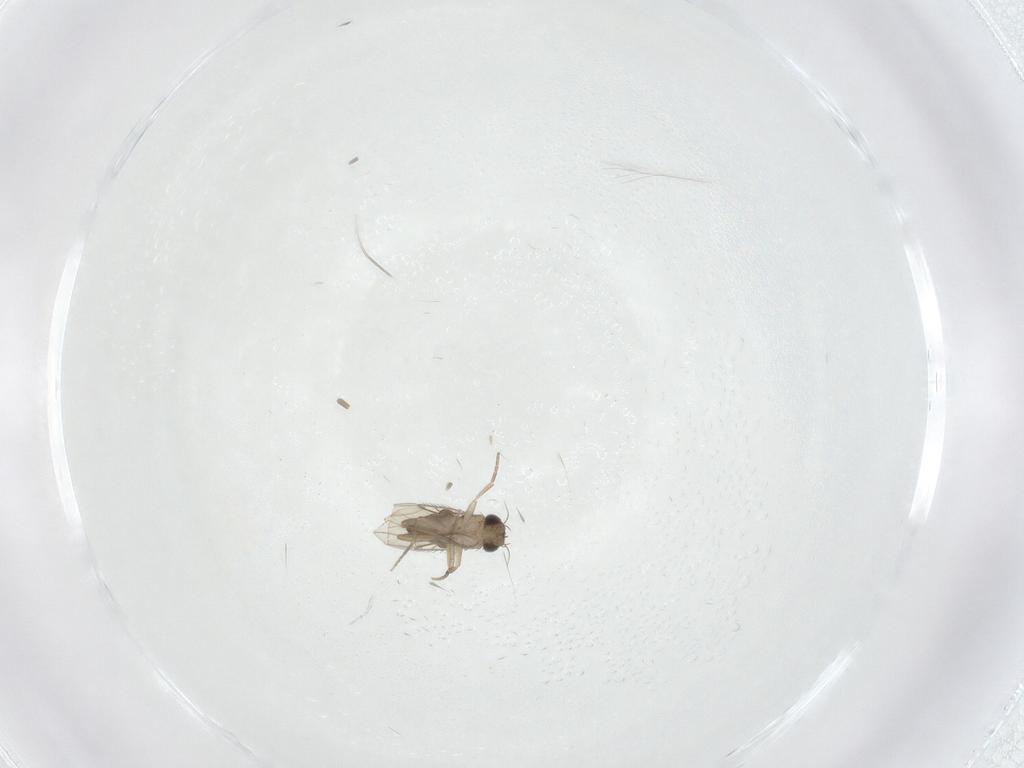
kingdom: Animalia
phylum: Arthropoda
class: Insecta
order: Diptera
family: Phoridae
